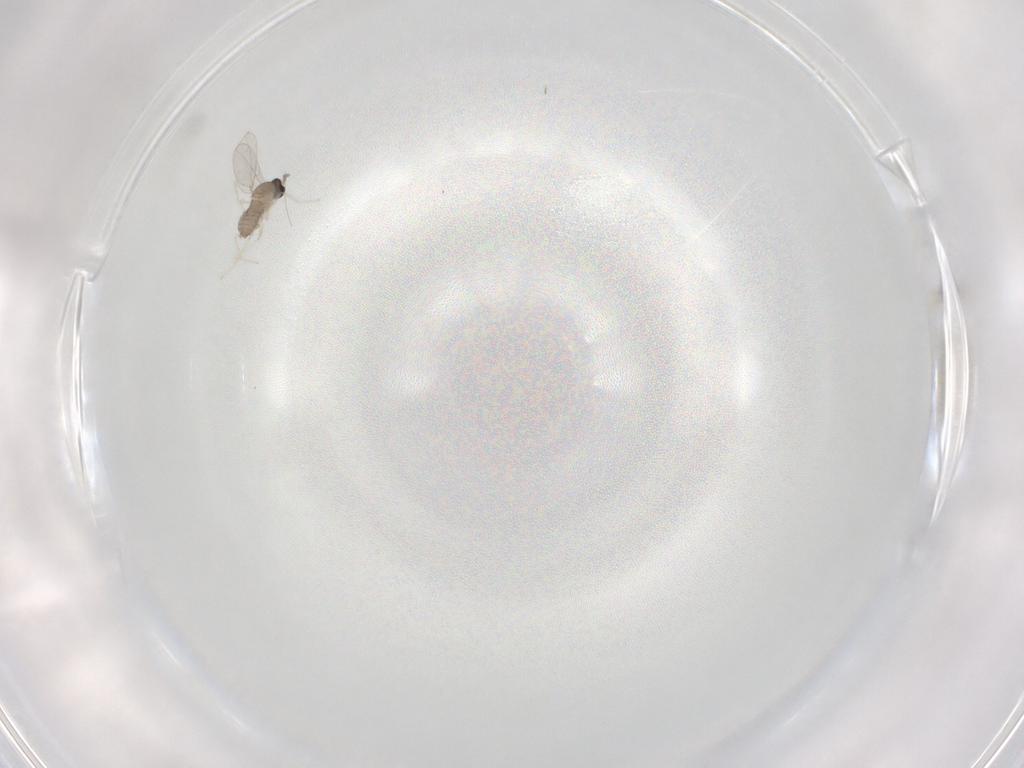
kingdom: Animalia
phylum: Arthropoda
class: Insecta
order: Diptera
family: Cecidomyiidae
